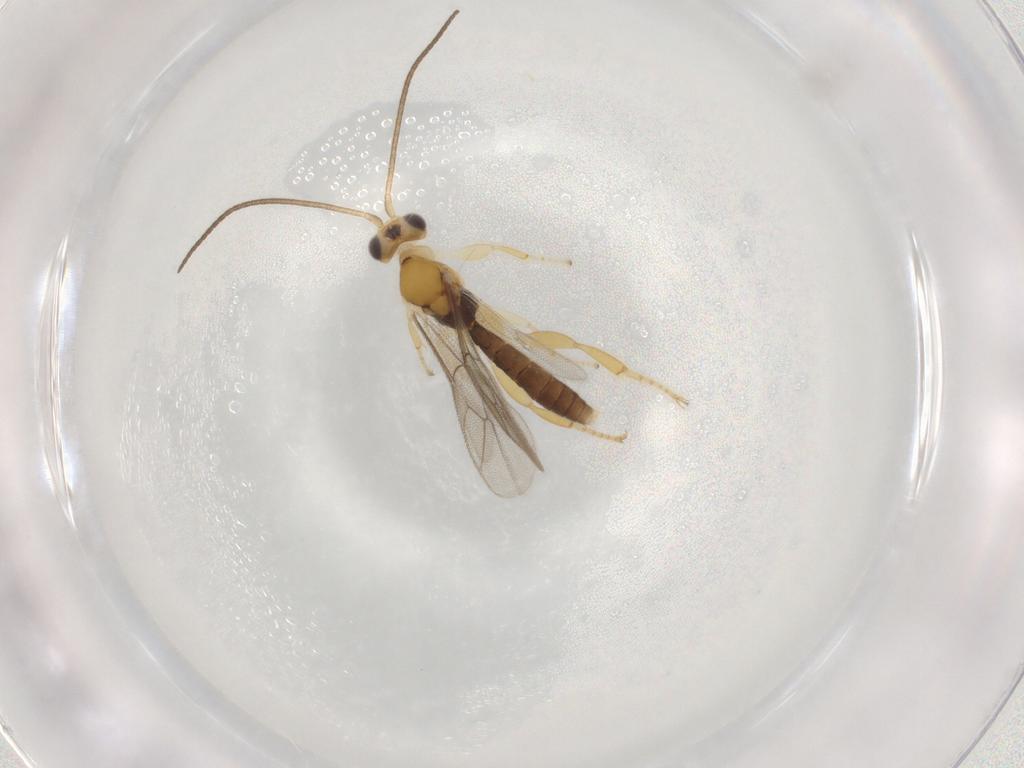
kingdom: Animalia
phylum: Arthropoda
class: Insecta
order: Hymenoptera
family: Ichneumonidae
